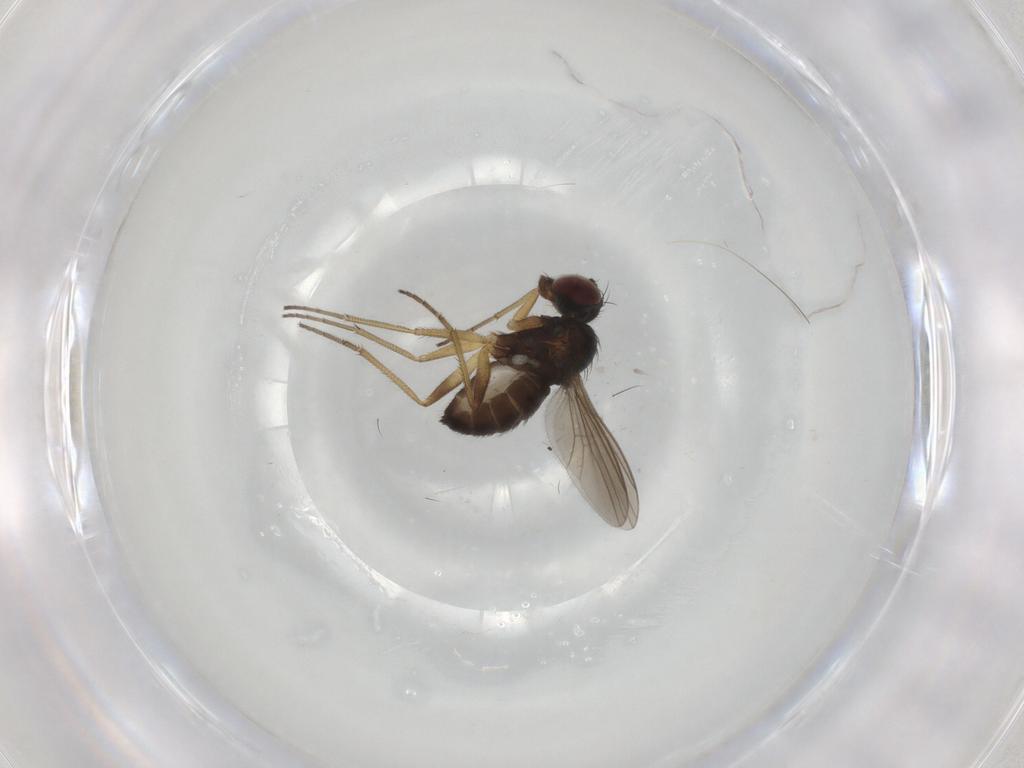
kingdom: Animalia
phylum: Arthropoda
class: Insecta
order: Diptera
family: Dolichopodidae
